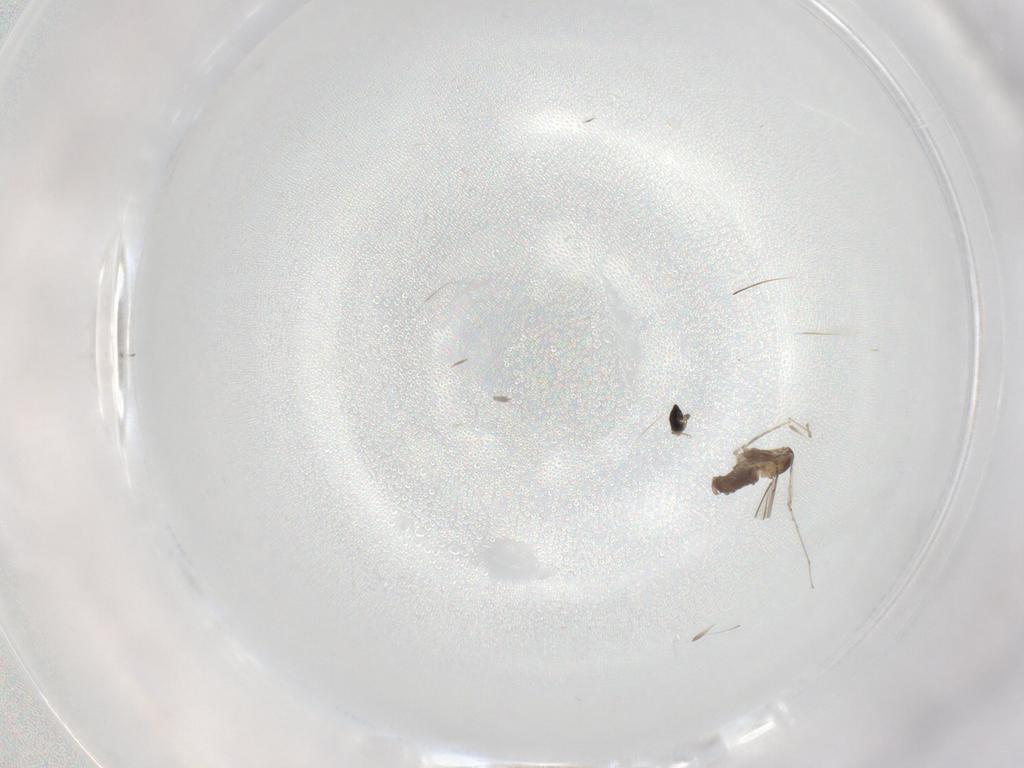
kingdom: Animalia
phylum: Arthropoda
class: Insecta
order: Diptera
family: Cecidomyiidae
